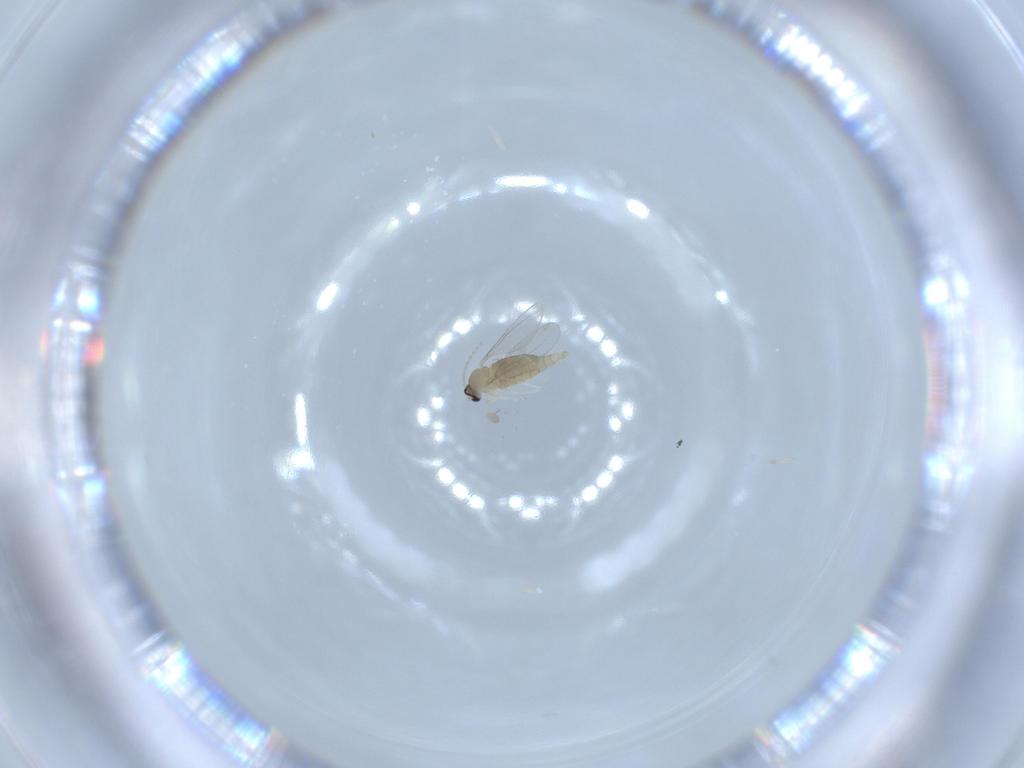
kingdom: Animalia
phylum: Arthropoda
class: Insecta
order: Diptera
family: Cecidomyiidae
